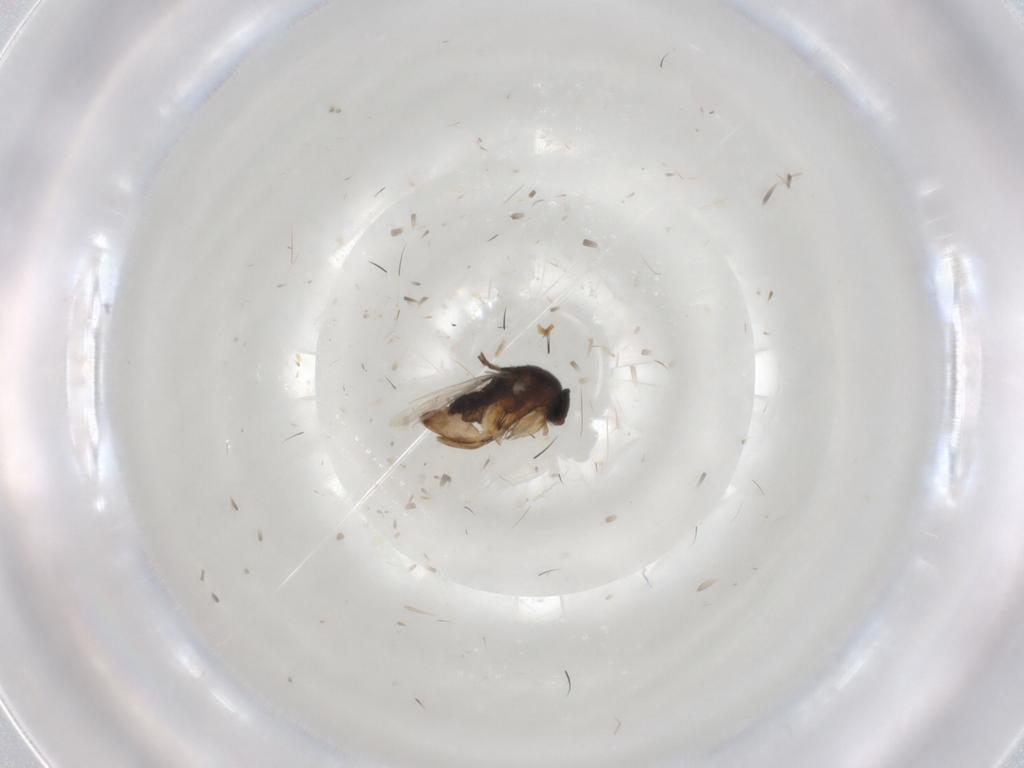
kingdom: Animalia
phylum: Arthropoda
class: Insecta
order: Diptera
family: Phoridae
